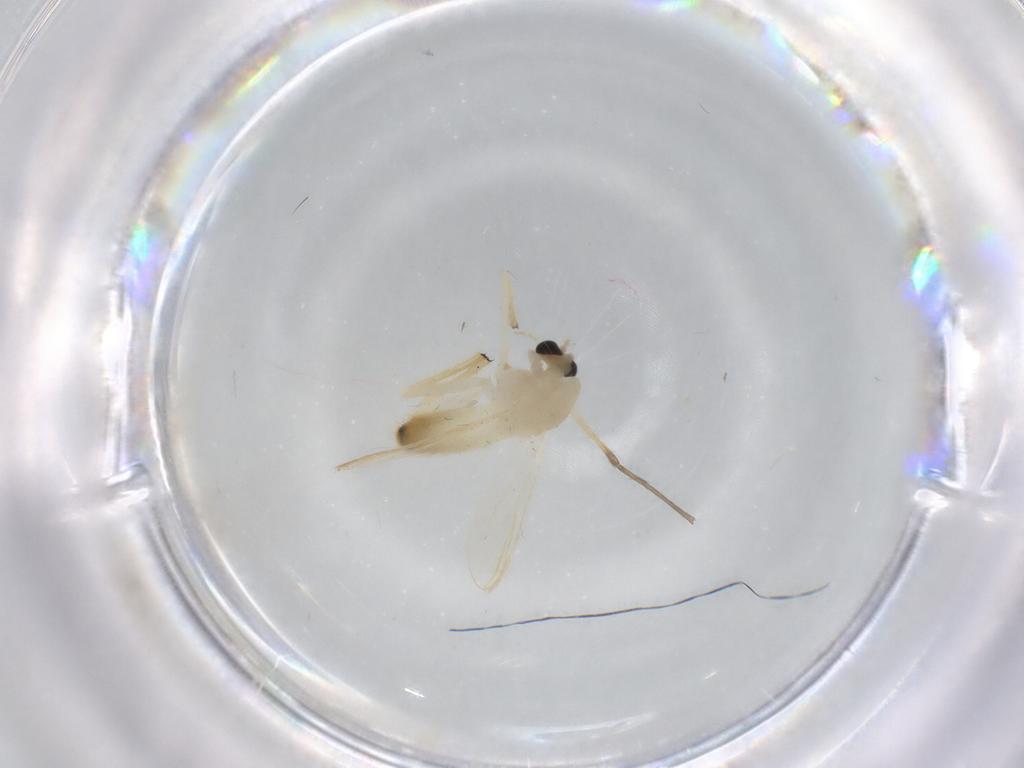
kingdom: Animalia
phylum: Arthropoda
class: Insecta
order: Diptera
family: Chironomidae
